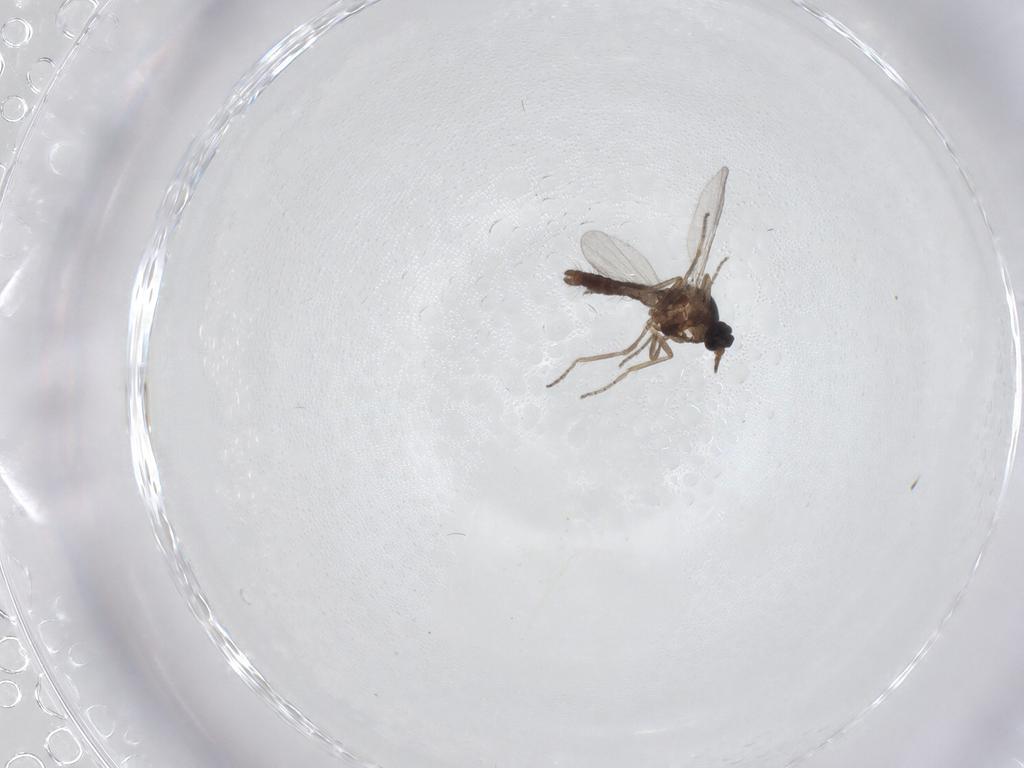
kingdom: Animalia
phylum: Arthropoda
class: Insecta
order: Diptera
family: Ceratopogonidae
